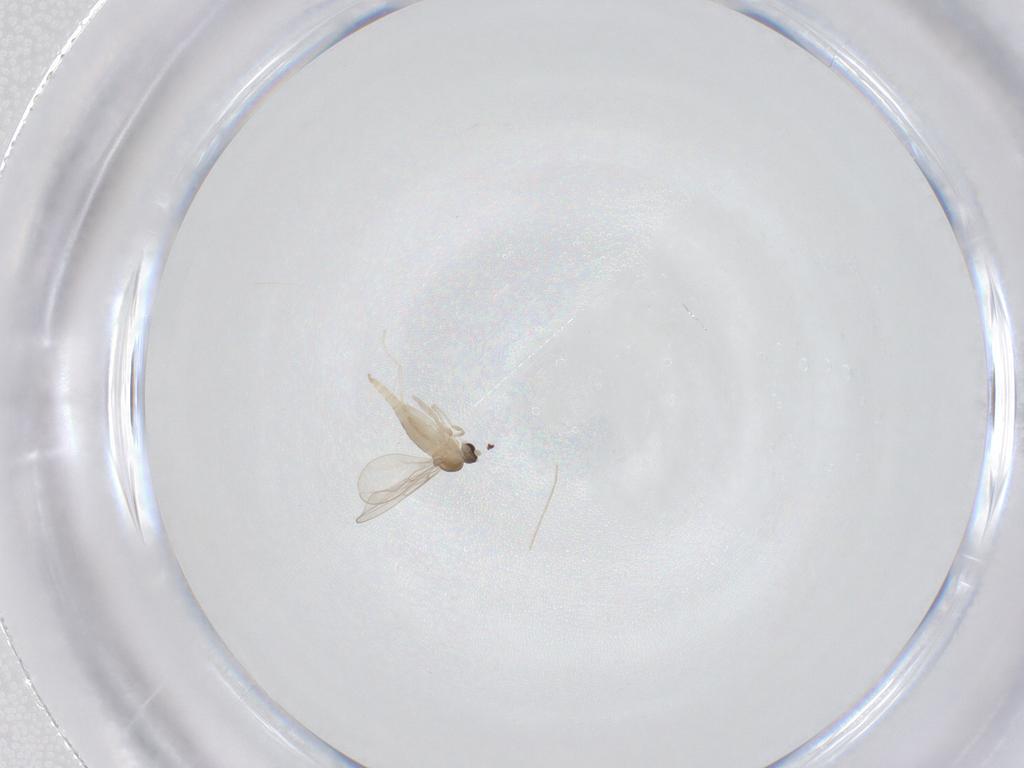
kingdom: Animalia
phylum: Arthropoda
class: Insecta
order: Diptera
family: Cecidomyiidae
